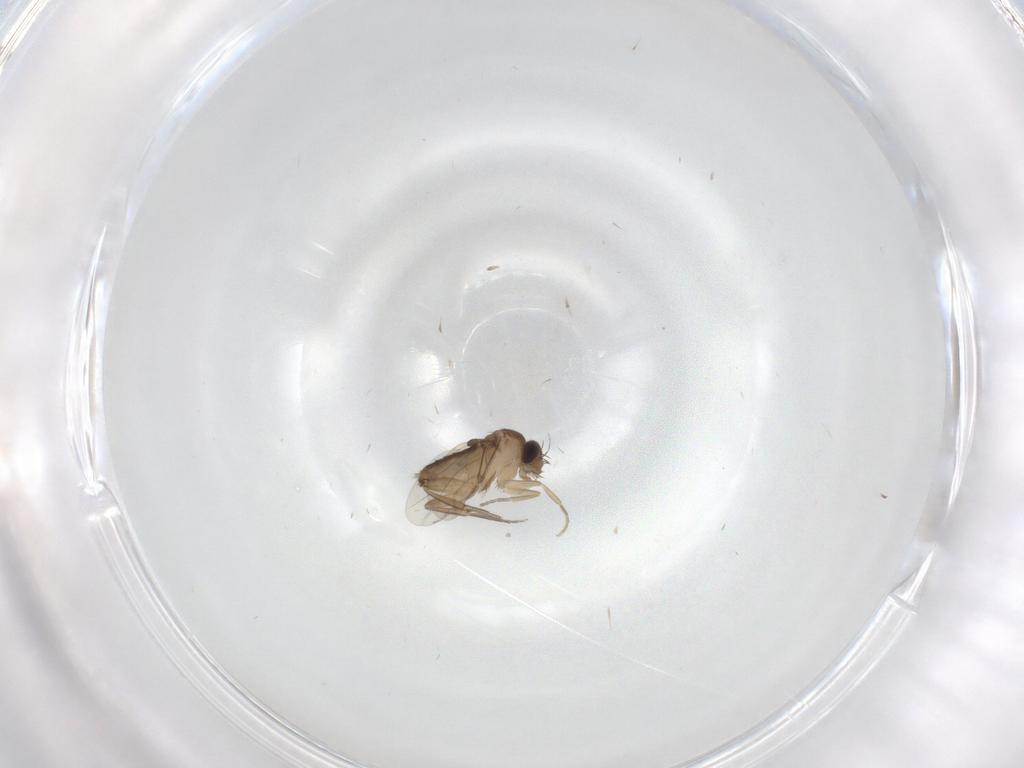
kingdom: Animalia
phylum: Arthropoda
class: Insecta
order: Diptera
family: Phoridae
